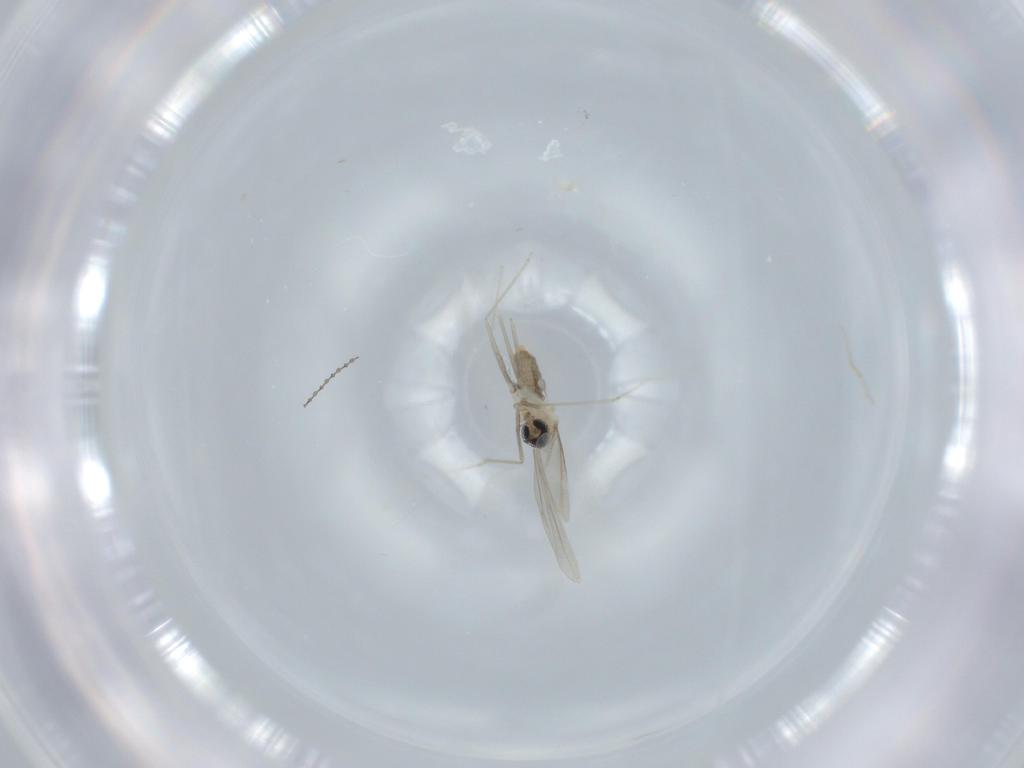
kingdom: Animalia
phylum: Arthropoda
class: Insecta
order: Diptera
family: Cecidomyiidae
